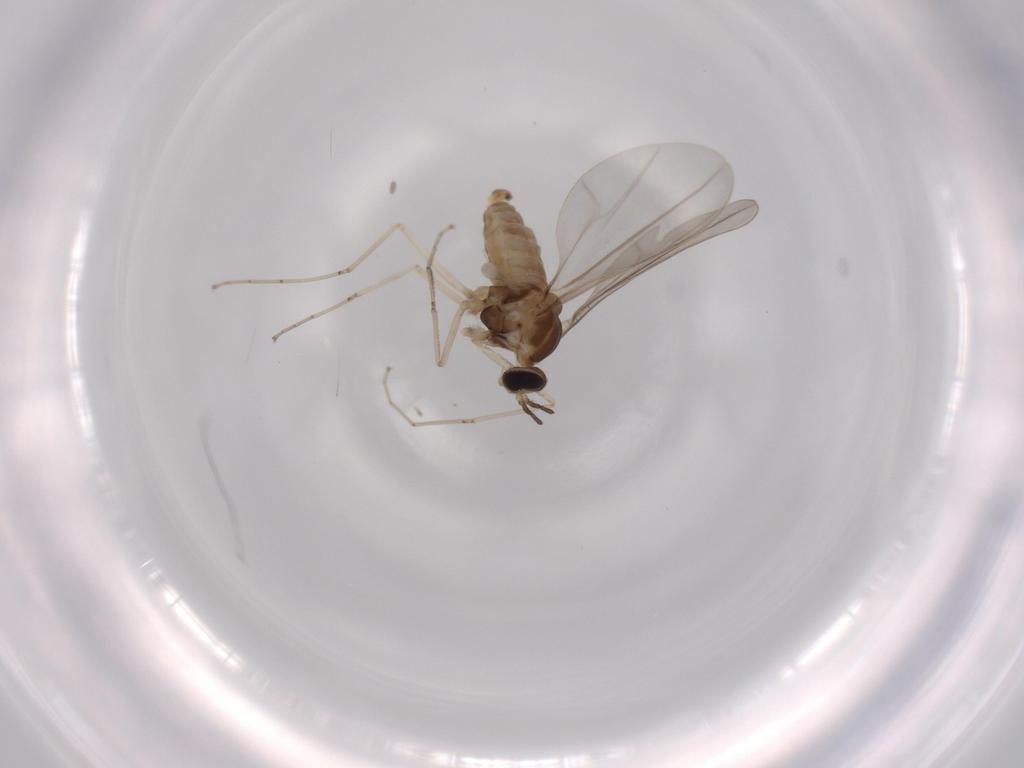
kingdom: Animalia
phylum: Arthropoda
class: Insecta
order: Diptera
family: Cecidomyiidae
